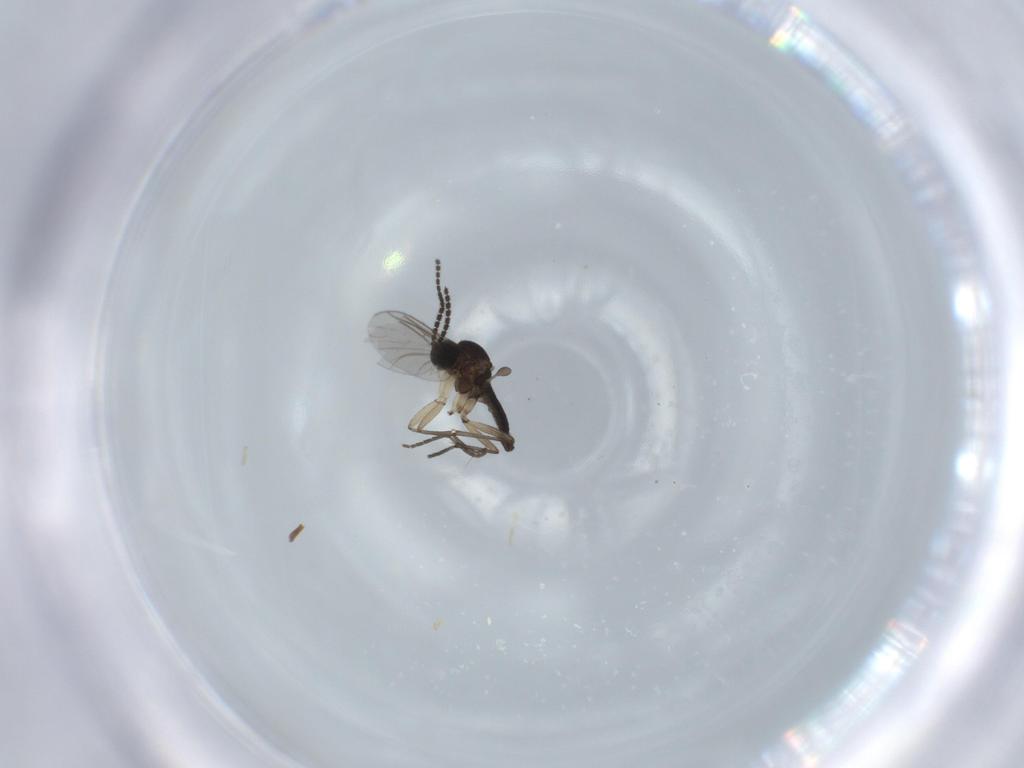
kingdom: Animalia
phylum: Arthropoda
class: Insecta
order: Diptera
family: Sciaridae
